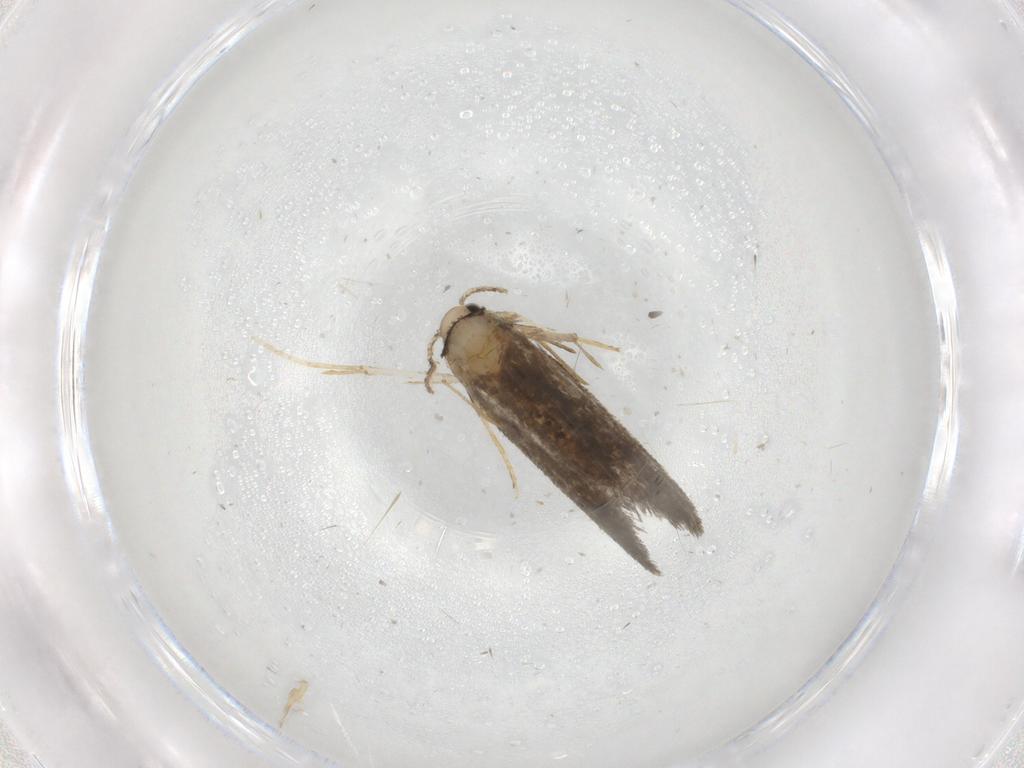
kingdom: Animalia
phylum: Arthropoda
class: Insecta
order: Lepidoptera
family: Psychidae
